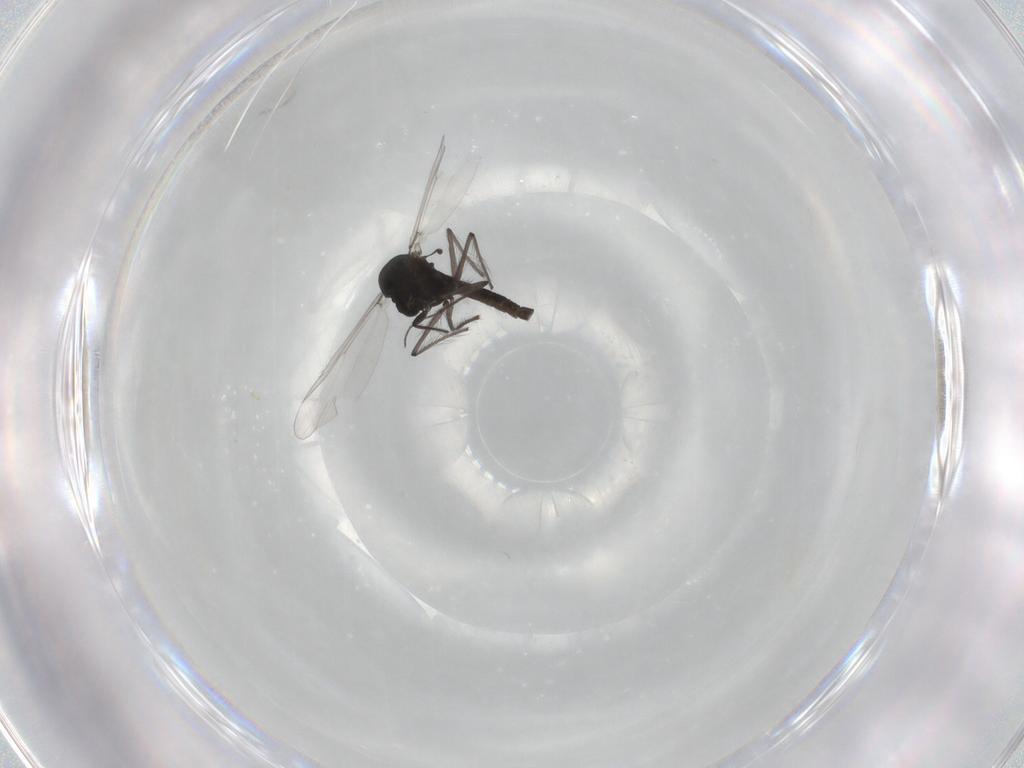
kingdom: Animalia
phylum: Arthropoda
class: Insecta
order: Diptera
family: Chironomidae
